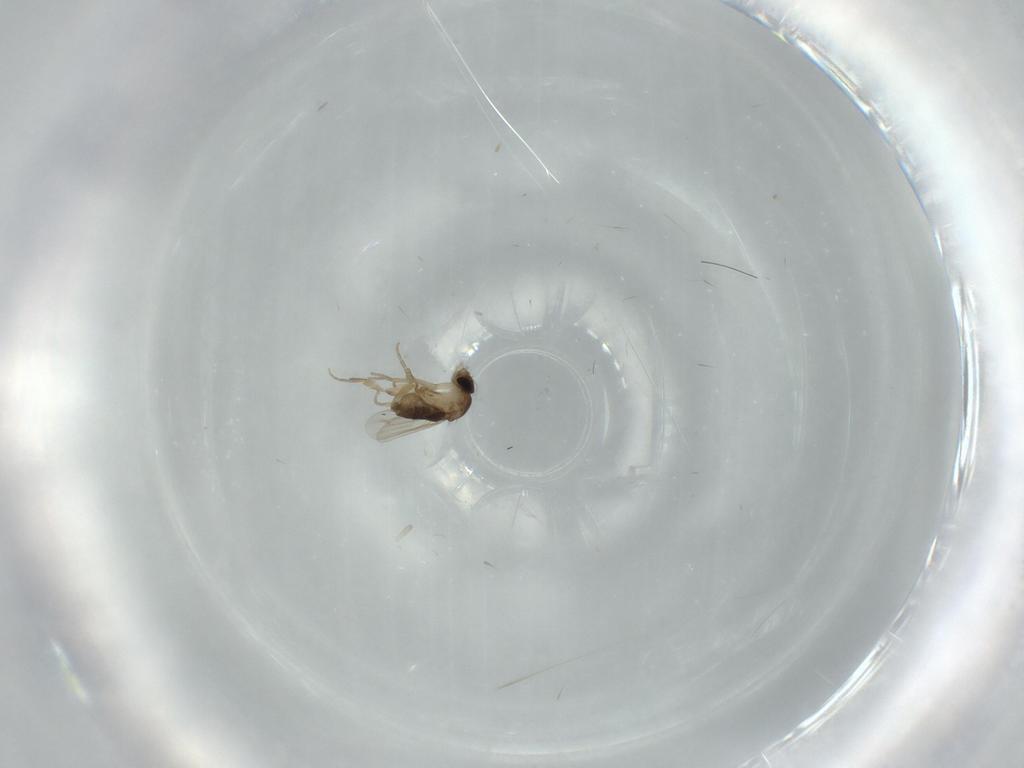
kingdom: Animalia
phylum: Arthropoda
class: Insecta
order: Diptera
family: Phoridae
